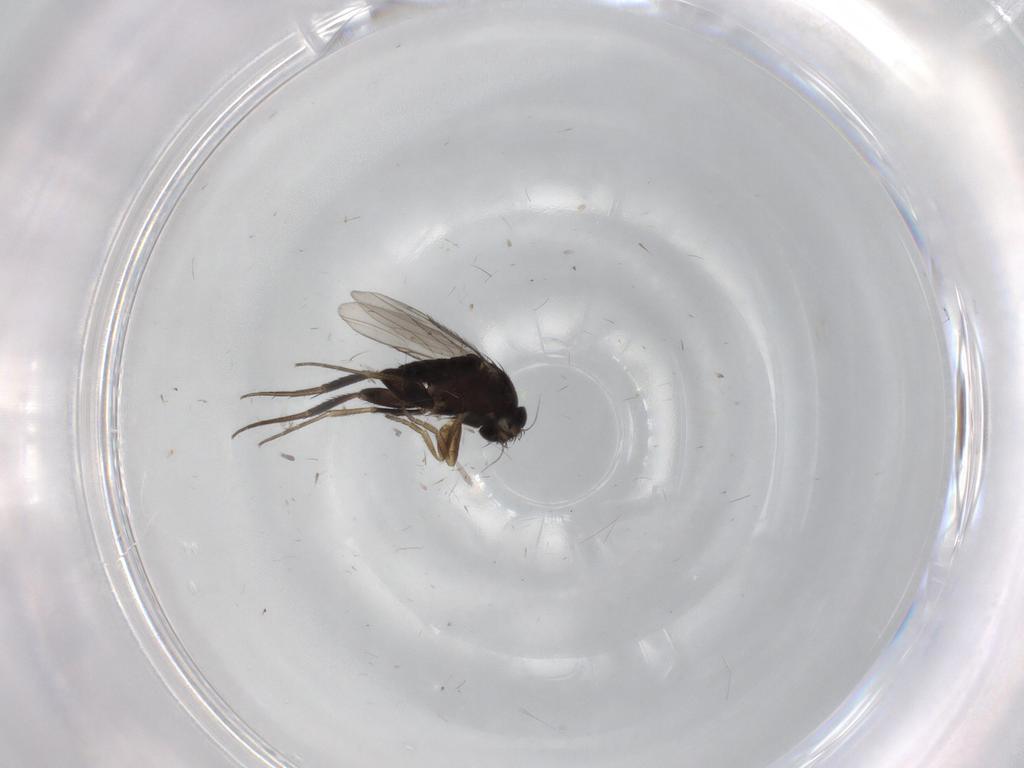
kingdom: Animalia
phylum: Arthropoda
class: Insecta
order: Diptera
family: Phoridae
